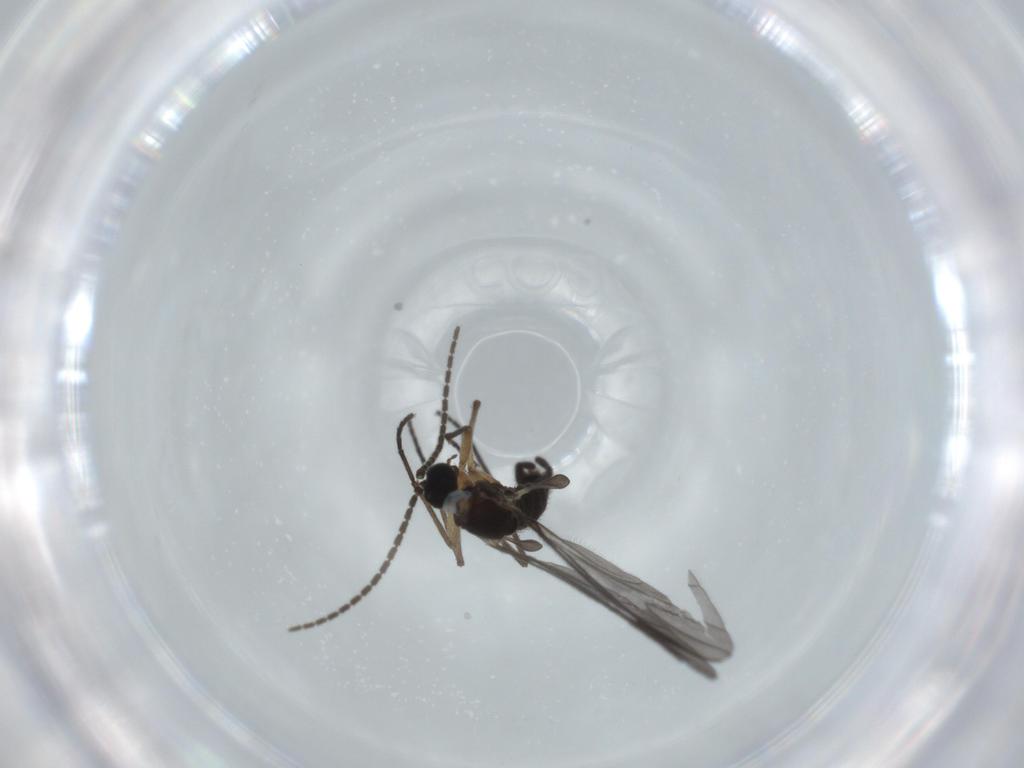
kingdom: Animalia
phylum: Arthropoda
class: Insecta
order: Diptera
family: Sciaridae
